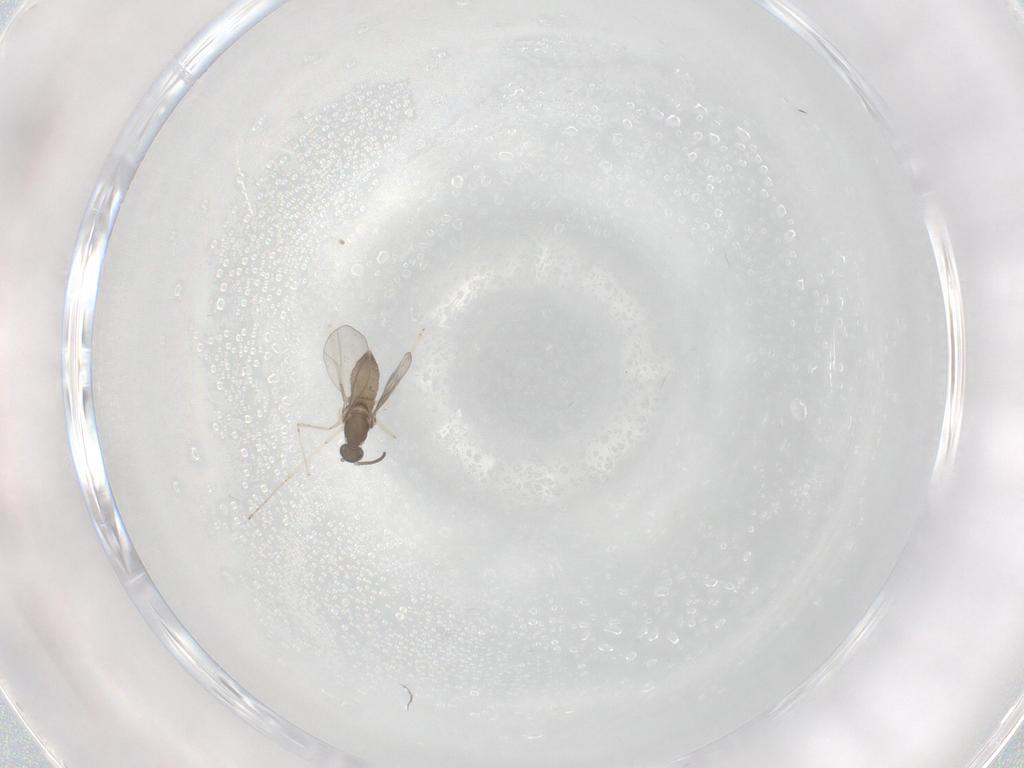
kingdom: Animalia
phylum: Arthropoda
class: Insecta
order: Diptera
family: Cecidomyiidae
